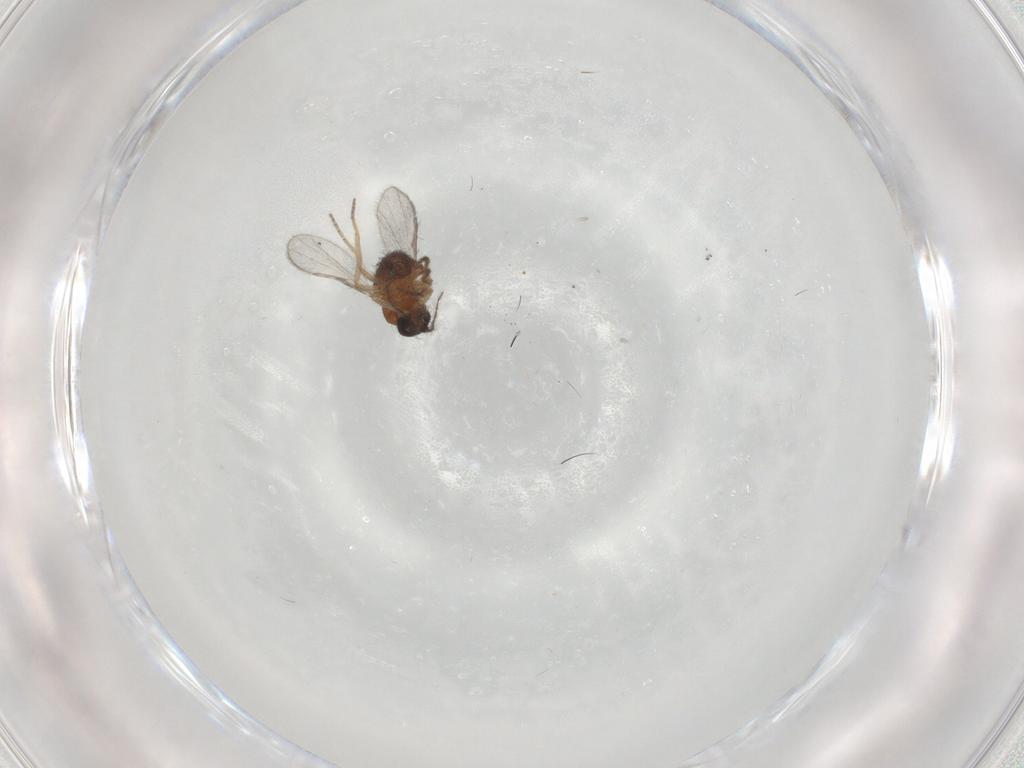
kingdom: Animalia
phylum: Arthropoda
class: Insecta
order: Diptera
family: Ceratopogonidae
